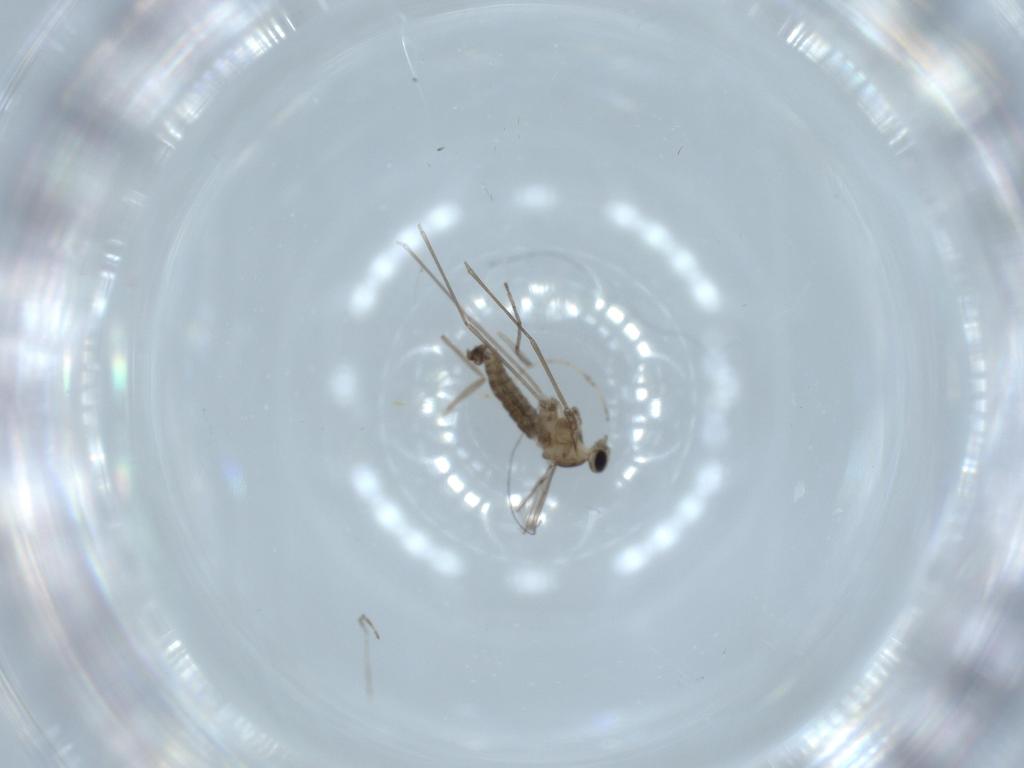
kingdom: Animalia
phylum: Arthropoda
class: Insecta
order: Diptera
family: Cecidomyiidae
